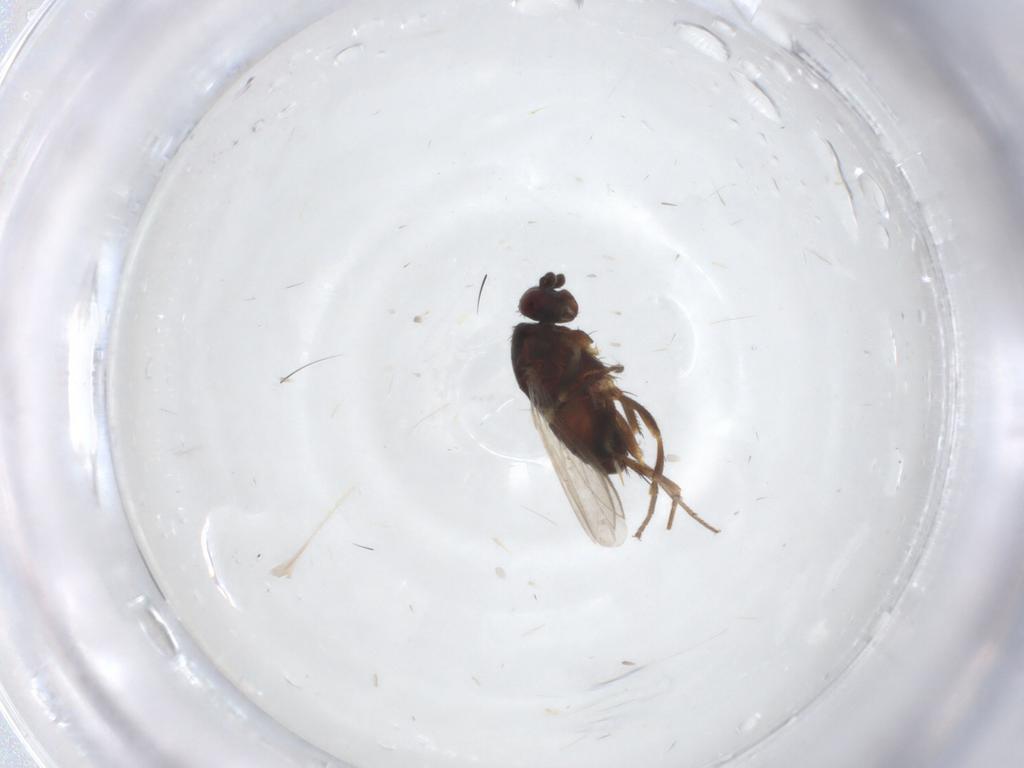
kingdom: Animalia
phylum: Arthropoda
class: Insecta
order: Diptera
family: Sphaeroceridae
